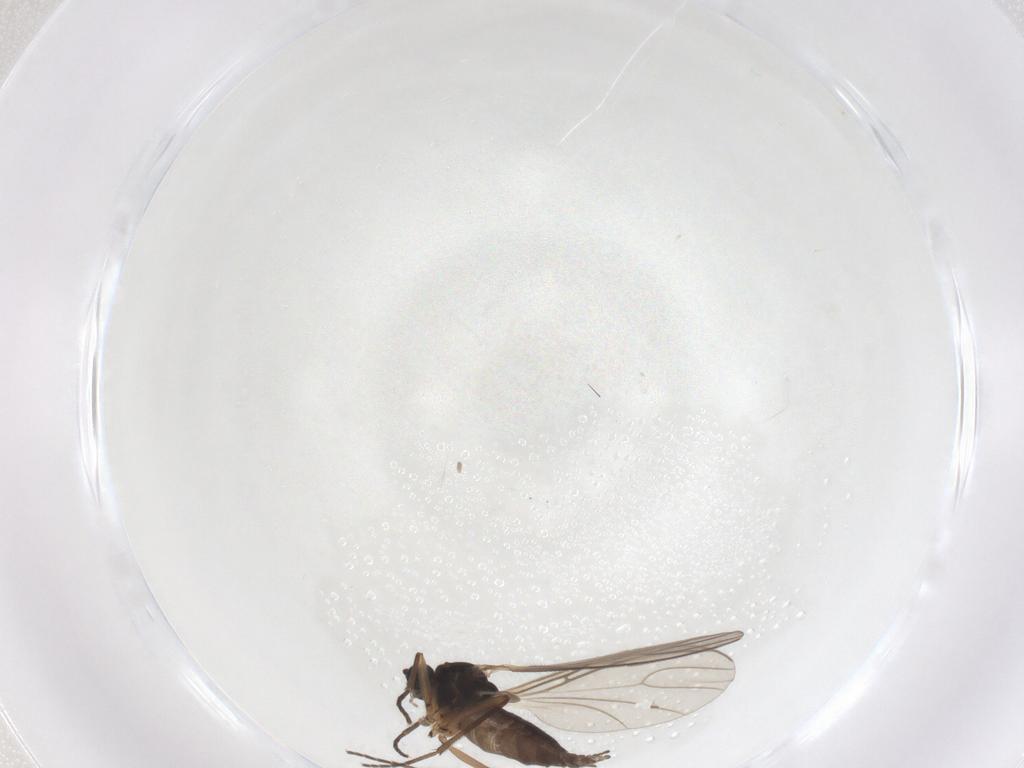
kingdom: Animalia
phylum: Arthropoda
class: Insecta
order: Diptera
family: Sciaridae
